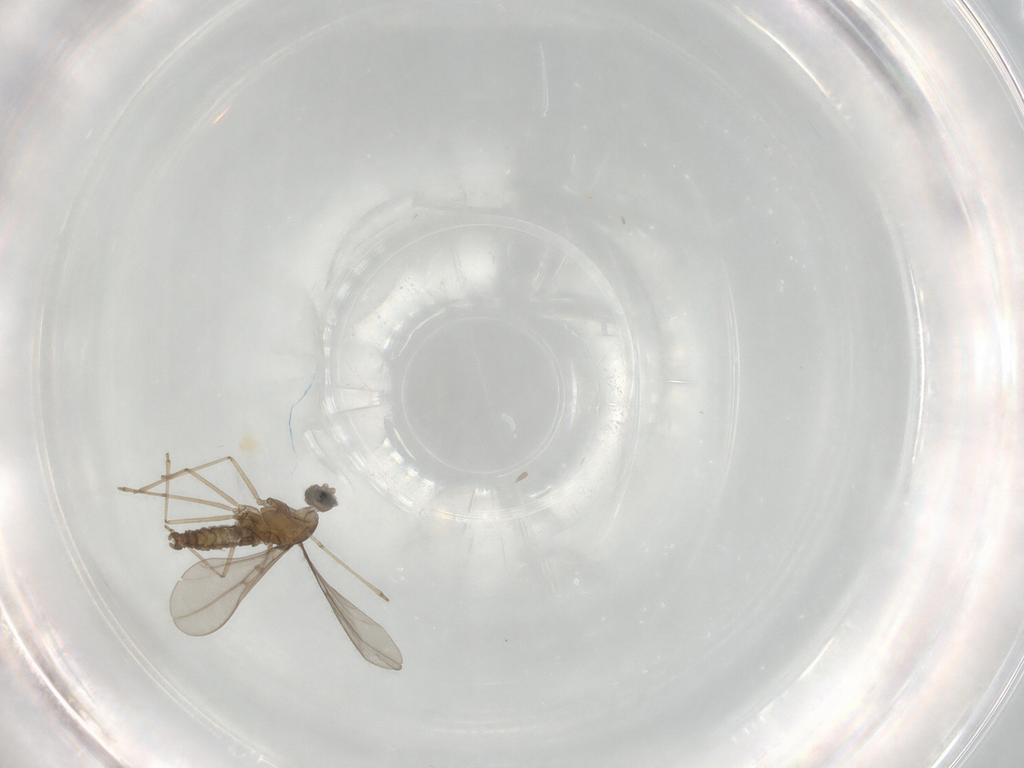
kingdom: Animalia
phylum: Arthropoda
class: Insecta
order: Diptera
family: Cecidomyiidae
